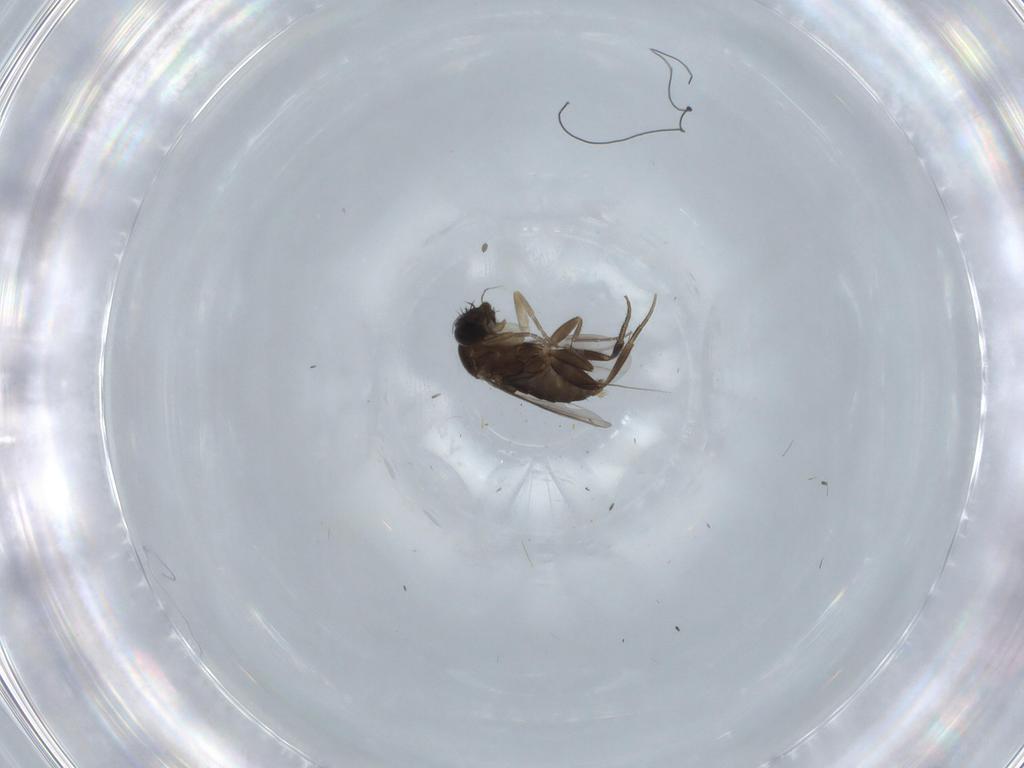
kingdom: Animalia
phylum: Arthropoda
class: Insecta
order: Diptera
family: Phoridae
